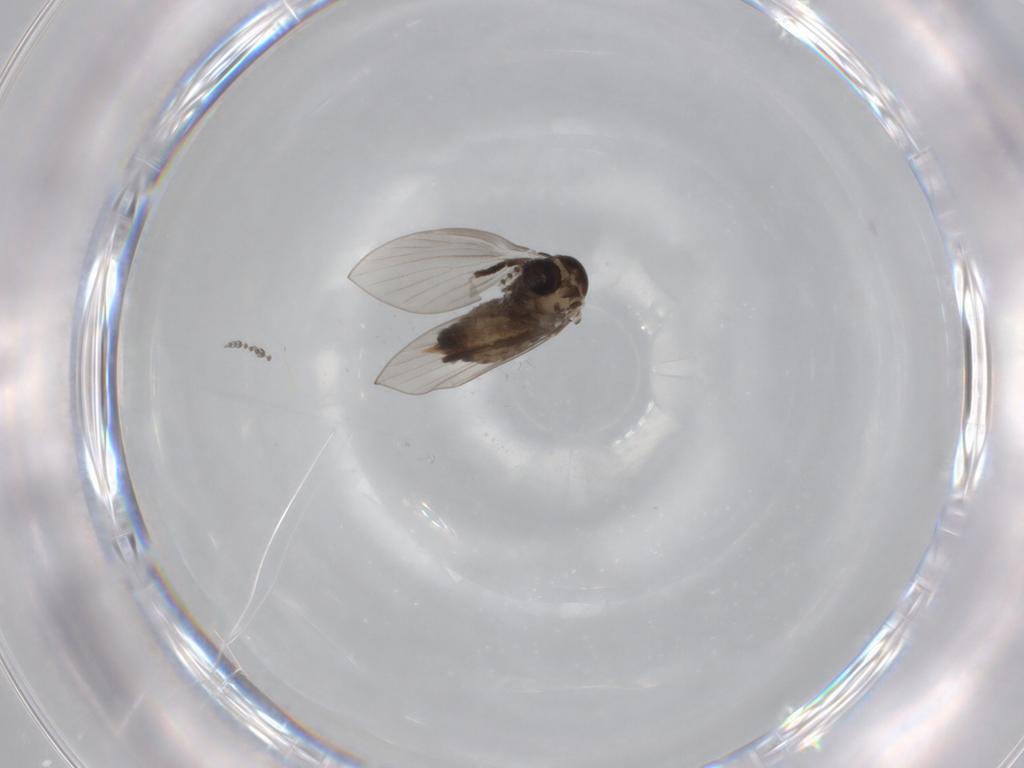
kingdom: Animalia
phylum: Arthropoda
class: Insecta
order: Diptera
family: Psychodidae
